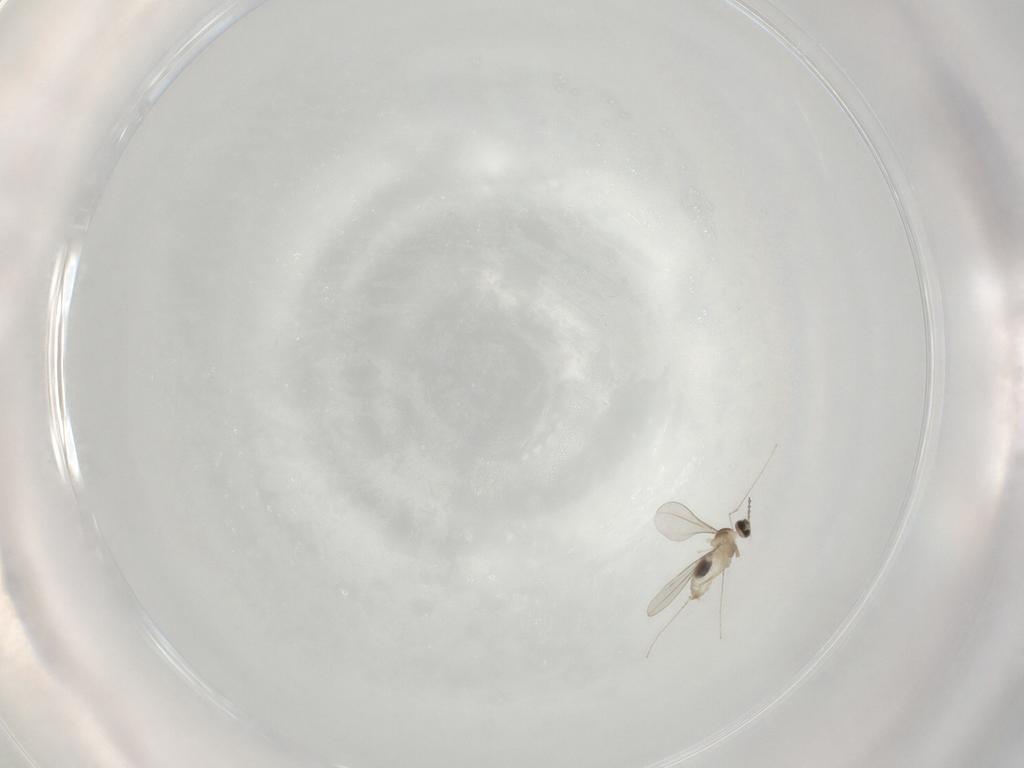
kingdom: Animalia
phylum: Arthropoda
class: Insecta
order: Diptera
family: Cecidomyiidae
